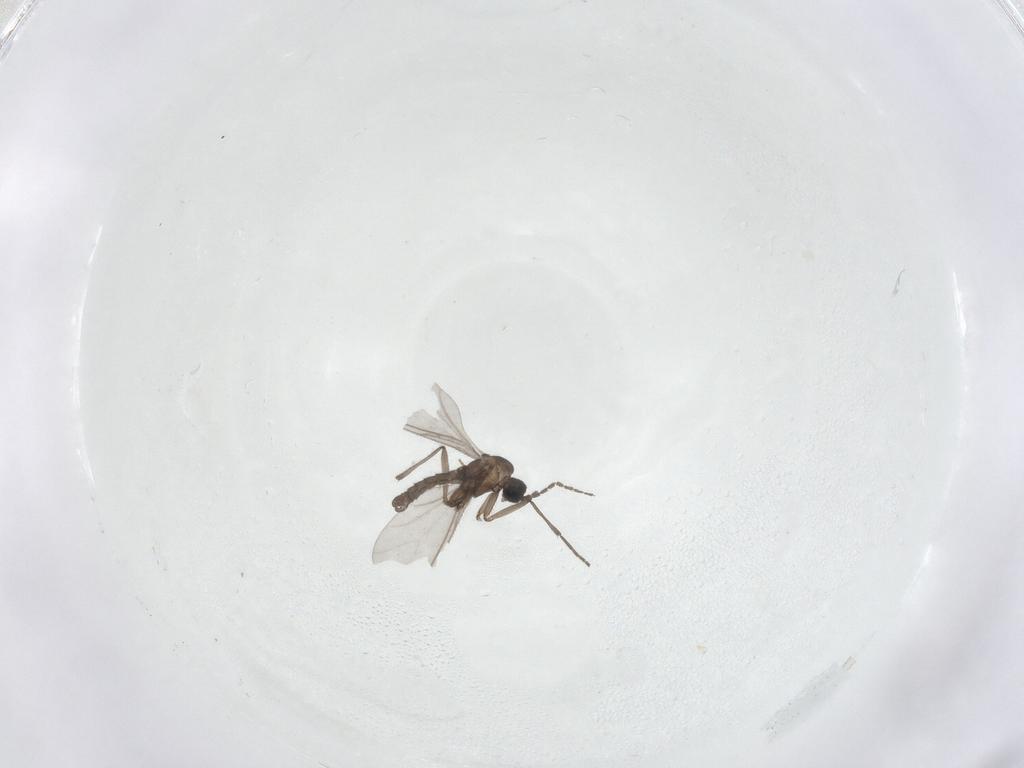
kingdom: Animalia
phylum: Arthropoda
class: Insecta
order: Diptera
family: Sciaridae
